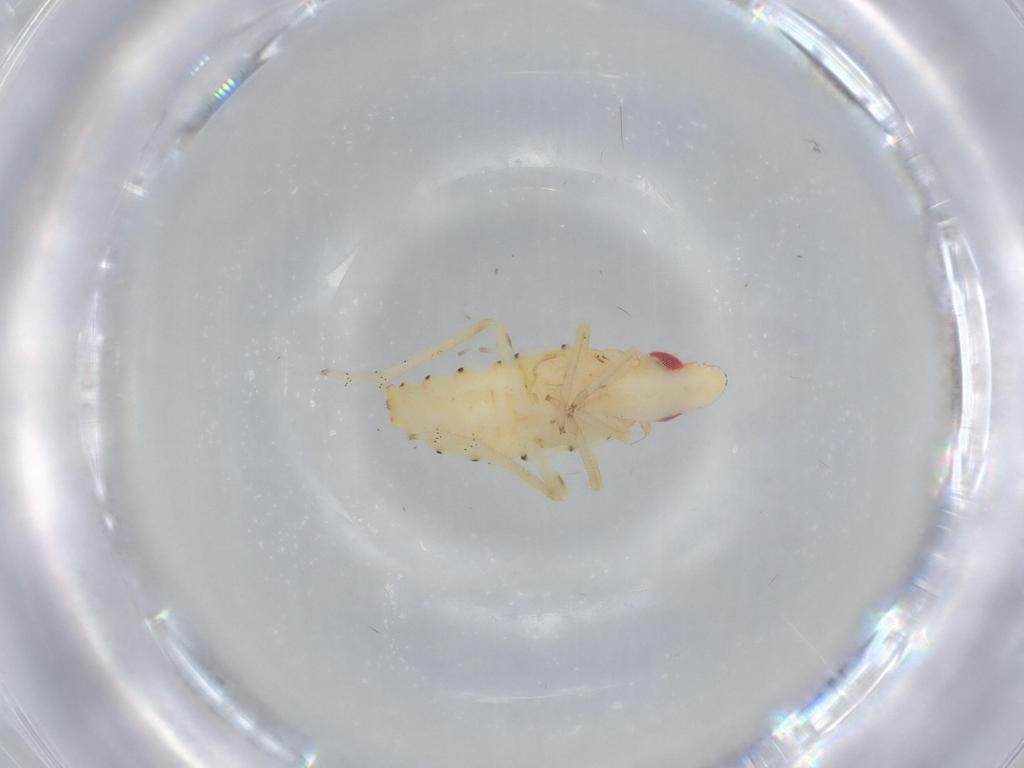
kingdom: Animalia
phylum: Arthropoda
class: Insecta
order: Hemiptera
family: Tropiduchidae
